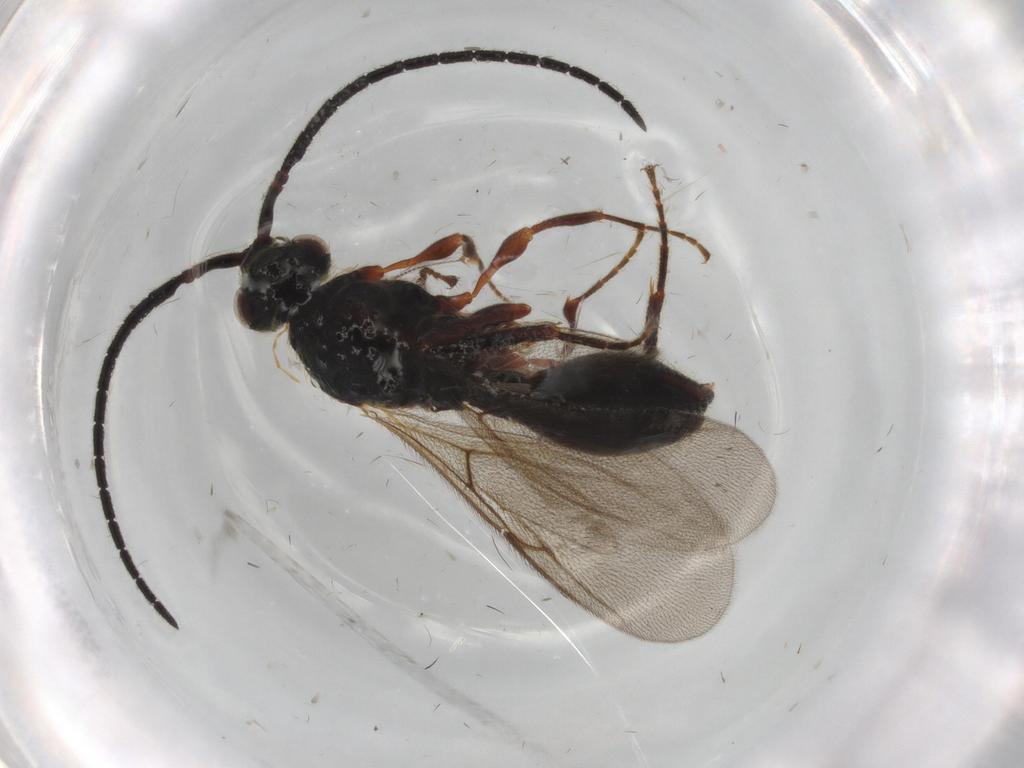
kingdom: Animalia
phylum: Arthropoda
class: Insecta
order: Hymenoptera
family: Diapriidae
